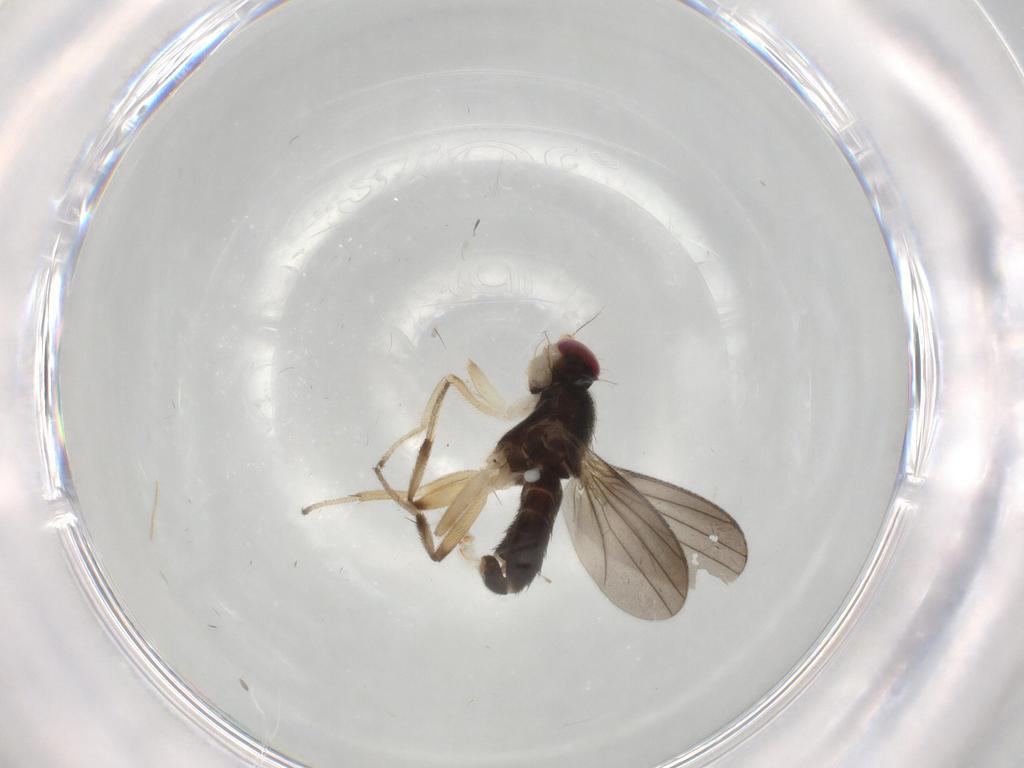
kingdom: Animalia
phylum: Arthropoda
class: Insecta
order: Diptera
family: Clusiidae
